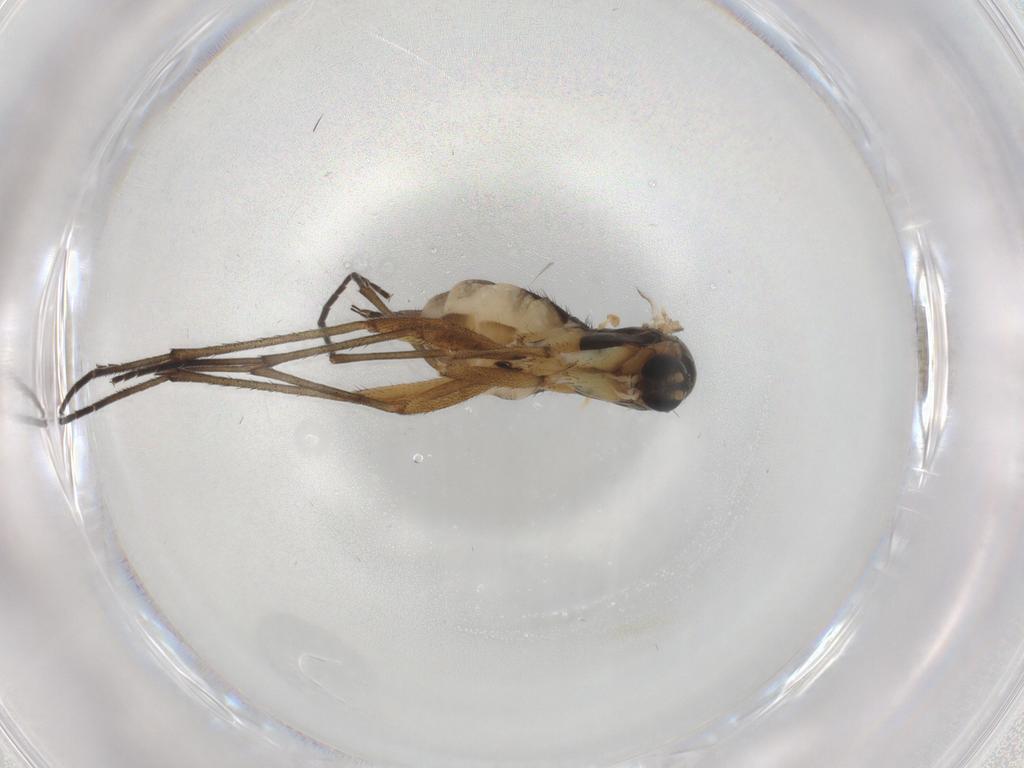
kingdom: Animalia
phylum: Arthropoda
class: Insecta
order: Diptera
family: Sciaridae
